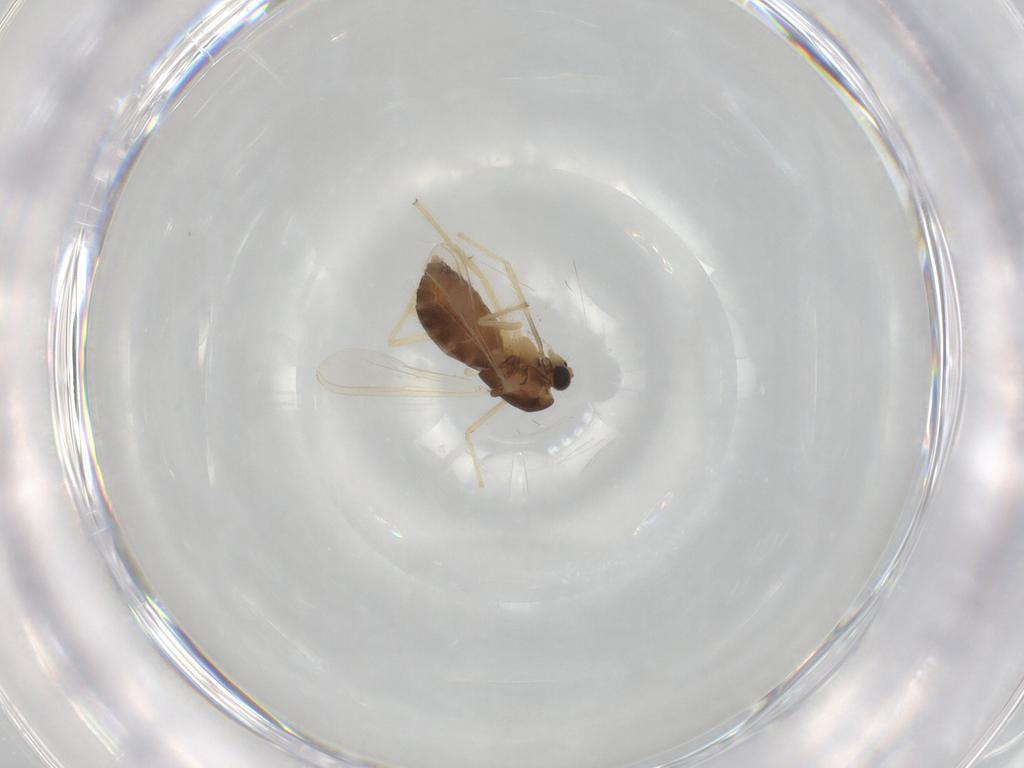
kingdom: Animalia
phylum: Arthropoda
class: Insecta
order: Diptera
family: Chironomidae
